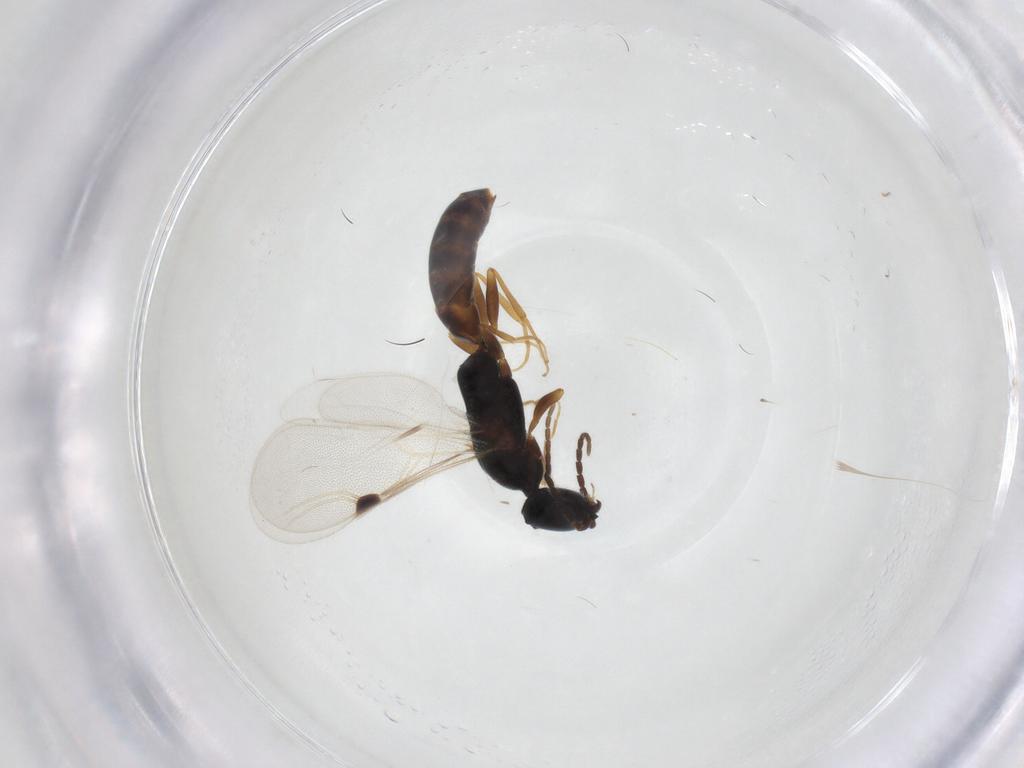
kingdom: Animalia
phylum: Arthropoda
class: Insecta
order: Hymenoptera
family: Bethylidae
